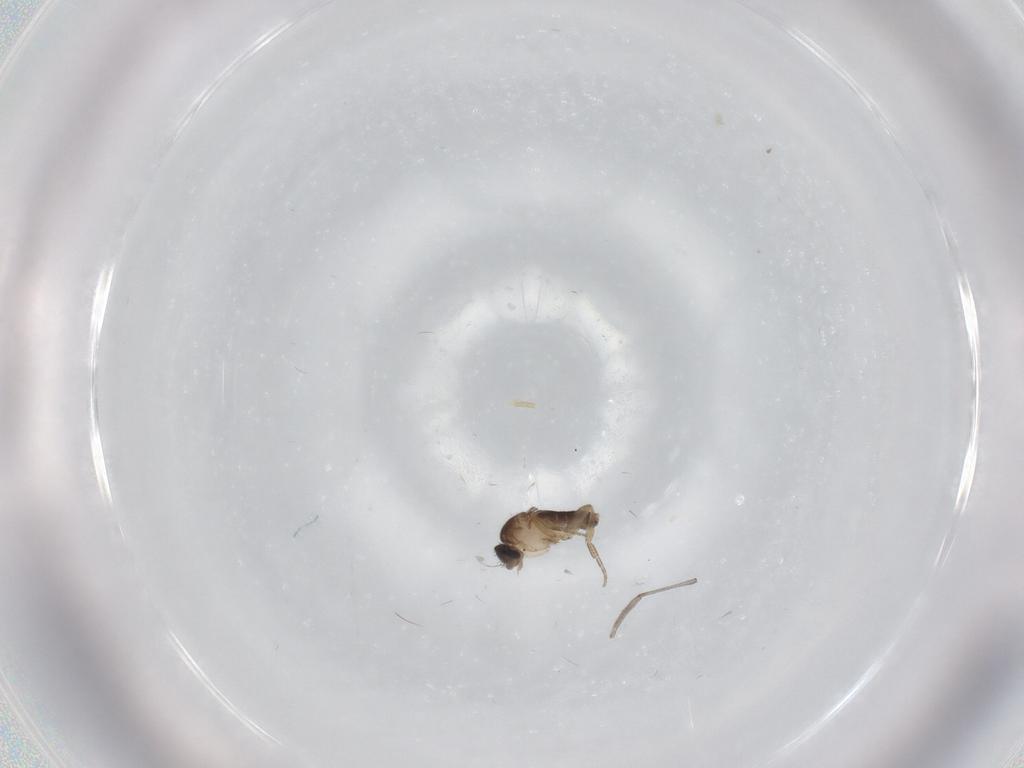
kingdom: Animalia
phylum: Arthropoda
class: Insecta
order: Diptera
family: Phoridae
